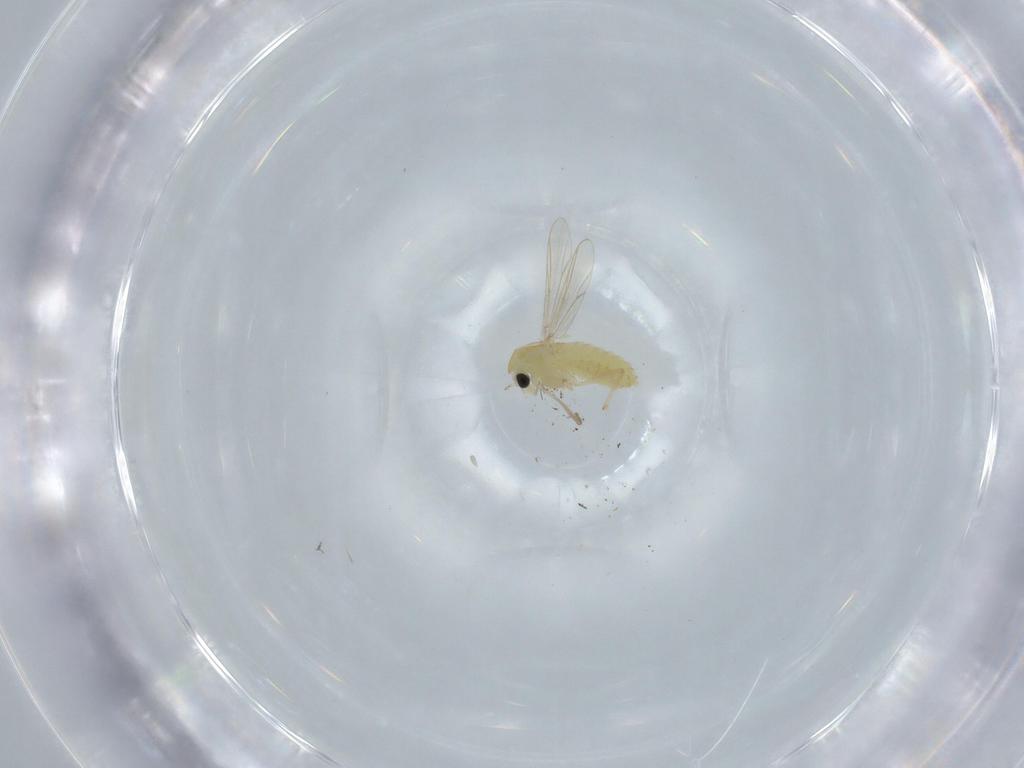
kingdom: Animalia
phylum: Arthropoda
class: Insecta
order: Diptera
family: Chironomidae
